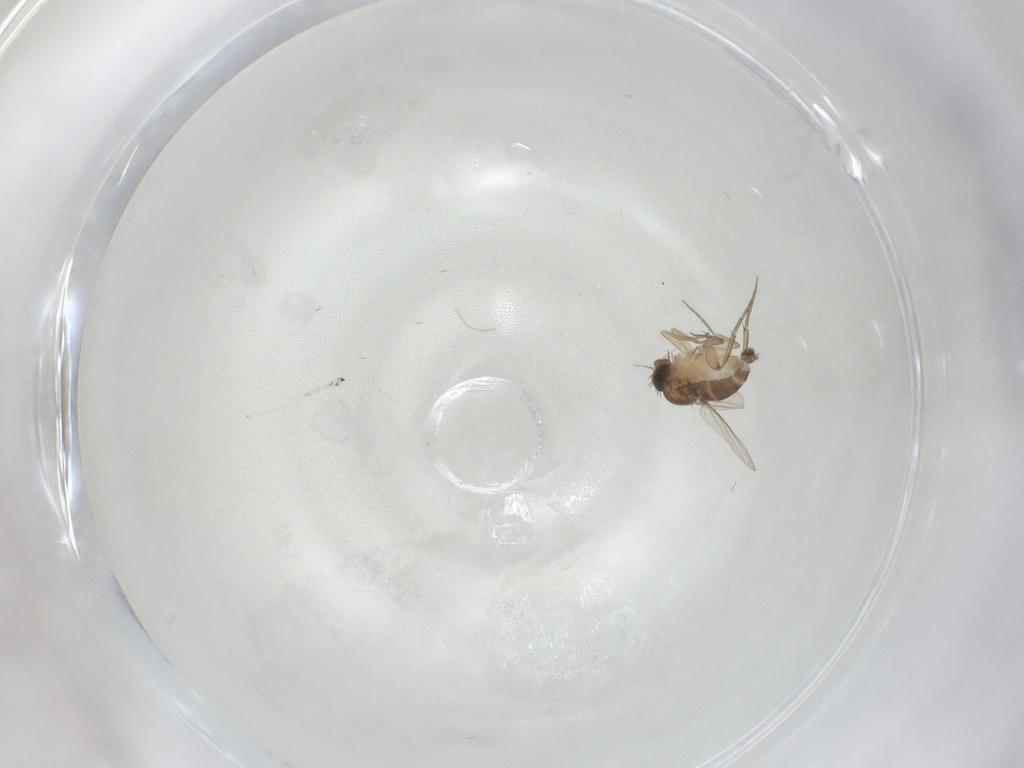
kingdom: Animalia
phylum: Arthropoda
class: Insecta
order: Diptera
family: Phoridae
